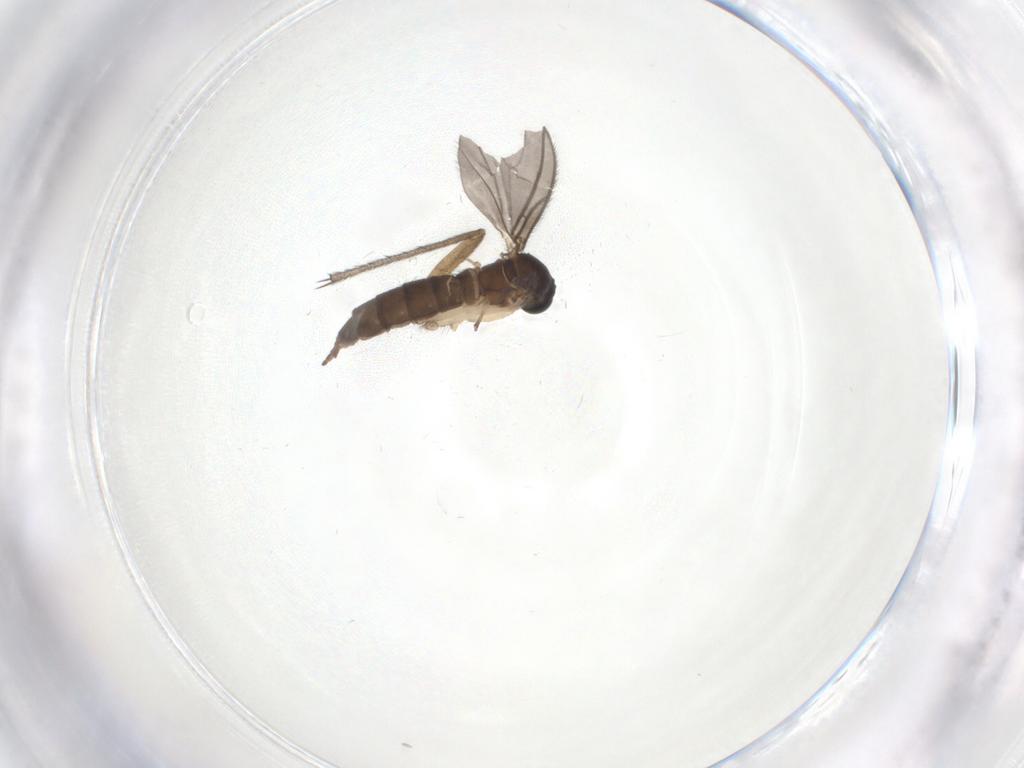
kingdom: Animalia
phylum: Arthropoda
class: Insecta
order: Diptera
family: Sciaridae
